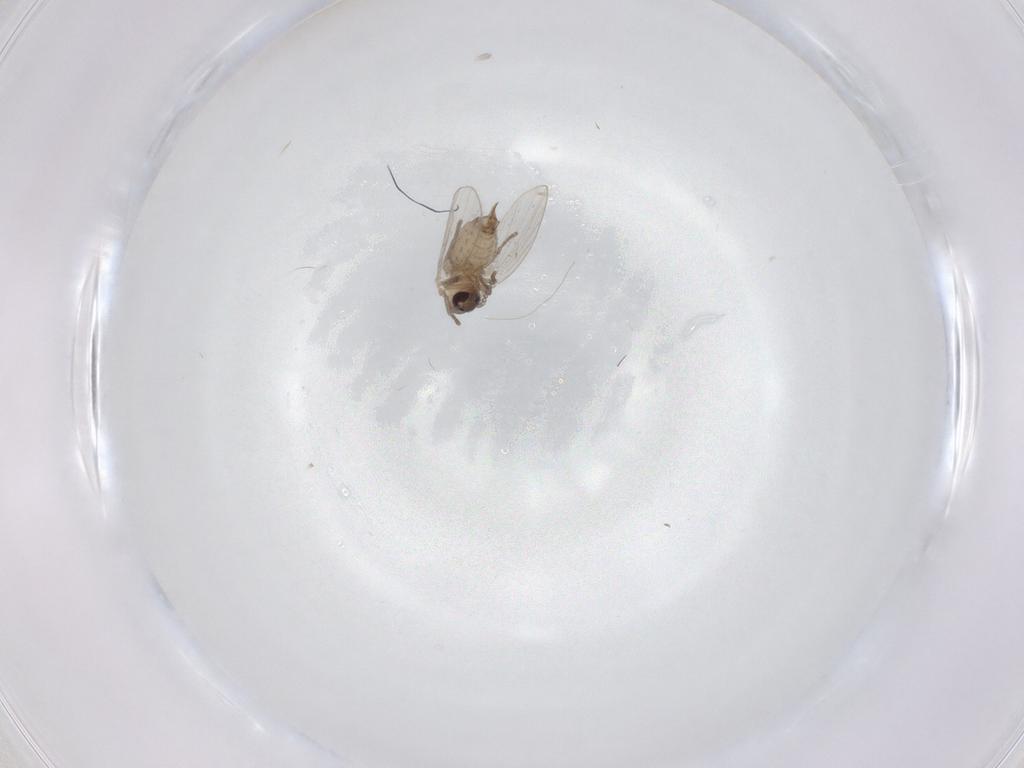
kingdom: Animalia
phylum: Arthropoda
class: Insecta
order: Diptera
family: Psychodidae
